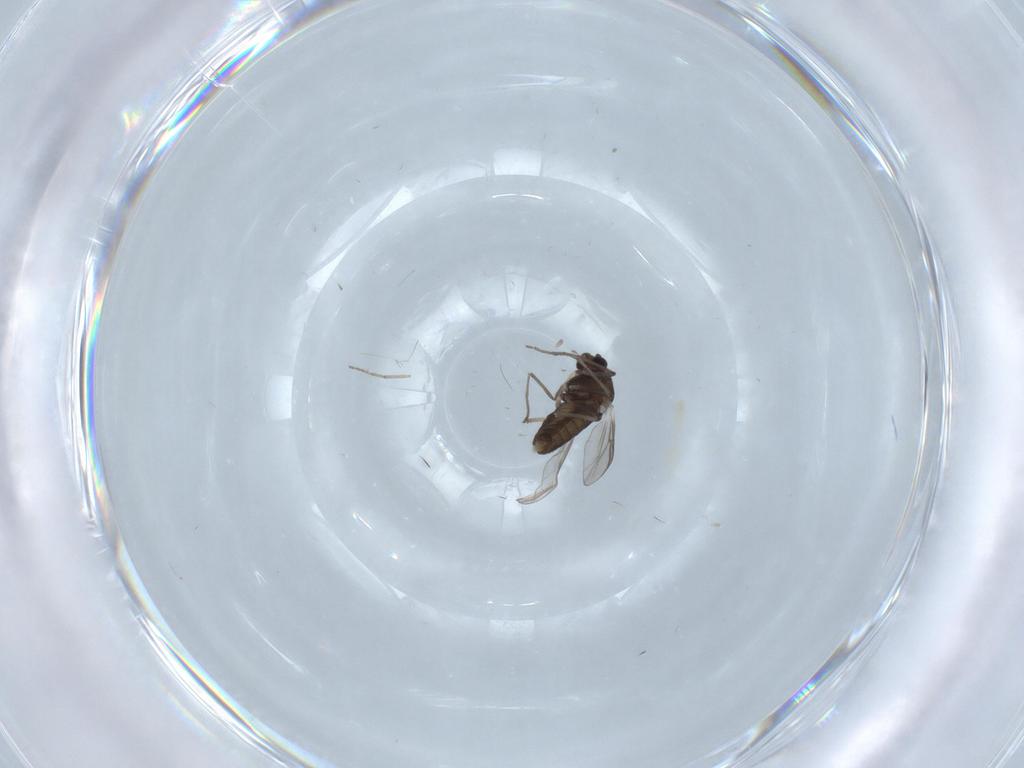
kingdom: Animalia
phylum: Arthropoda
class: Insecta
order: Diptera
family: Chironomidae
